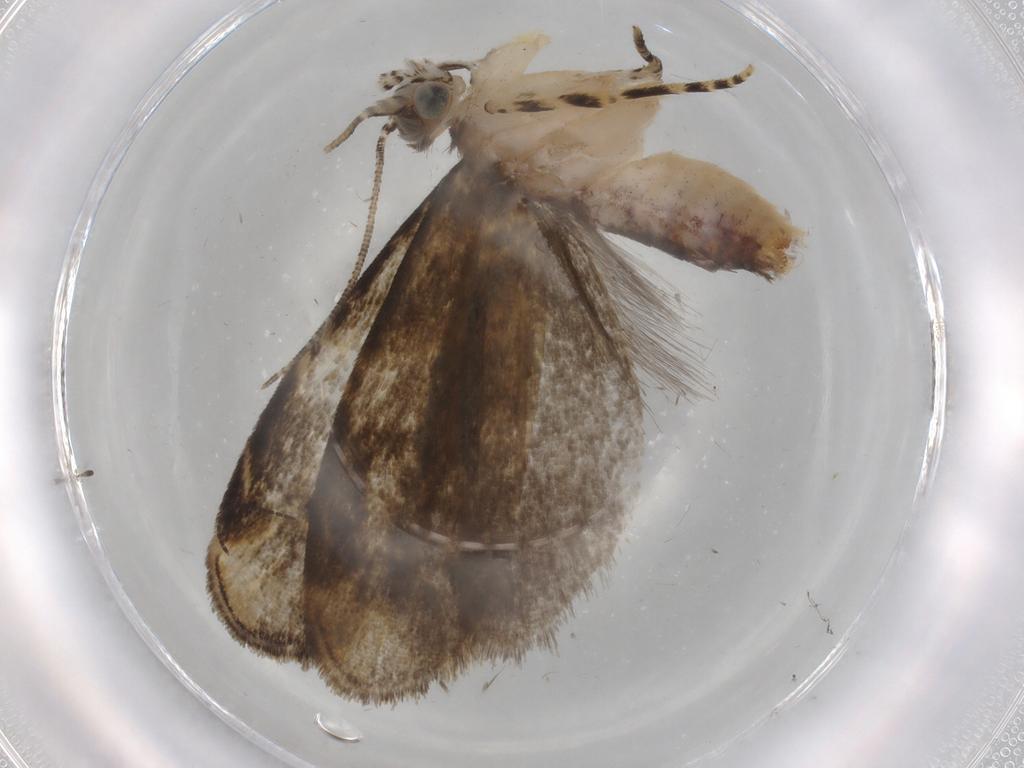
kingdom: Animalia
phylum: Arthropoda
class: Insecta
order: Lepidoptera
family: Tineidae
